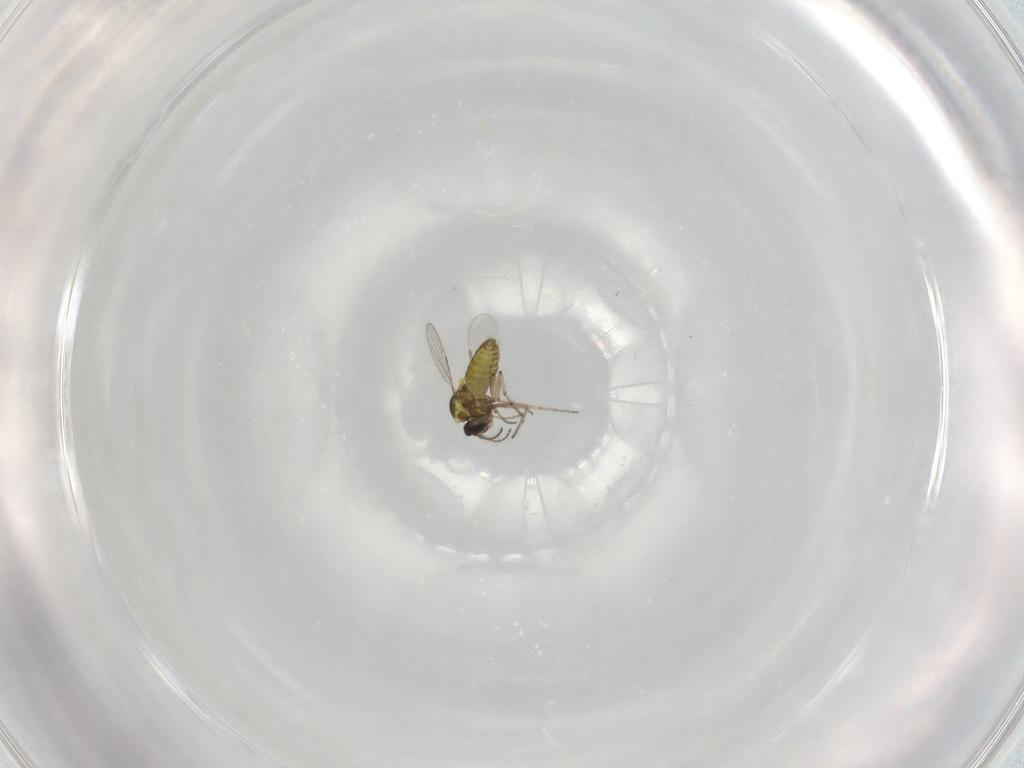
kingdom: Animalia
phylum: Arthropoda
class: Insecta
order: Diptera
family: Ceratopogonidae
